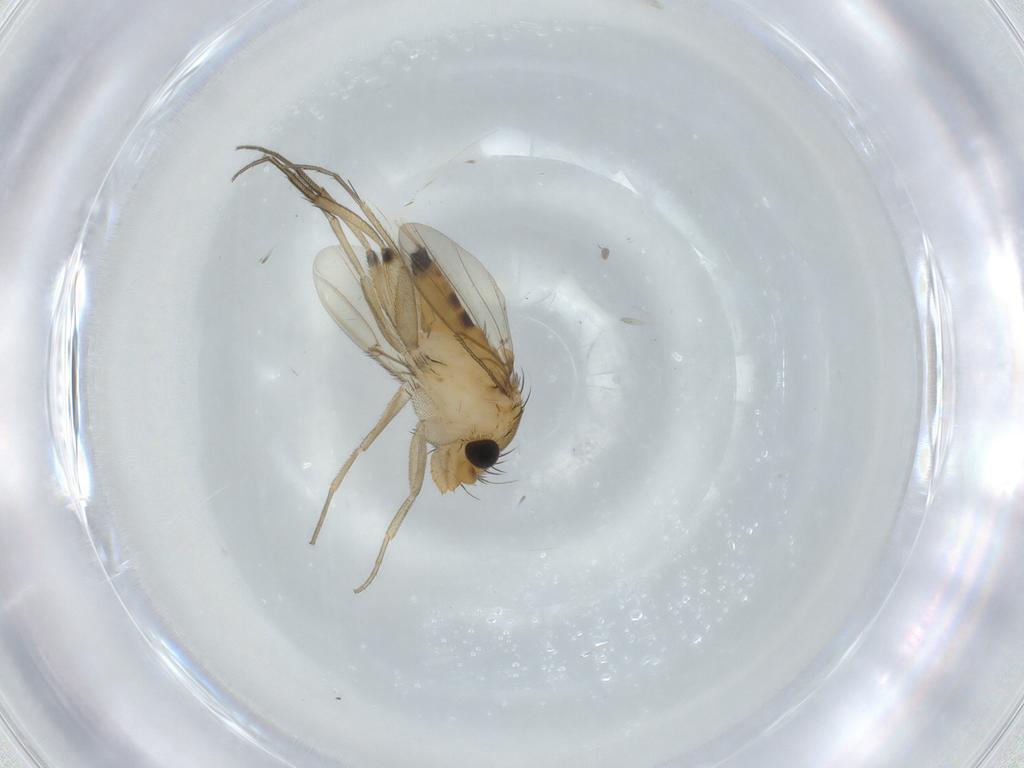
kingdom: Animalia
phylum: Arthropoda
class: Insecta
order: Diptera
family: Phoridae
